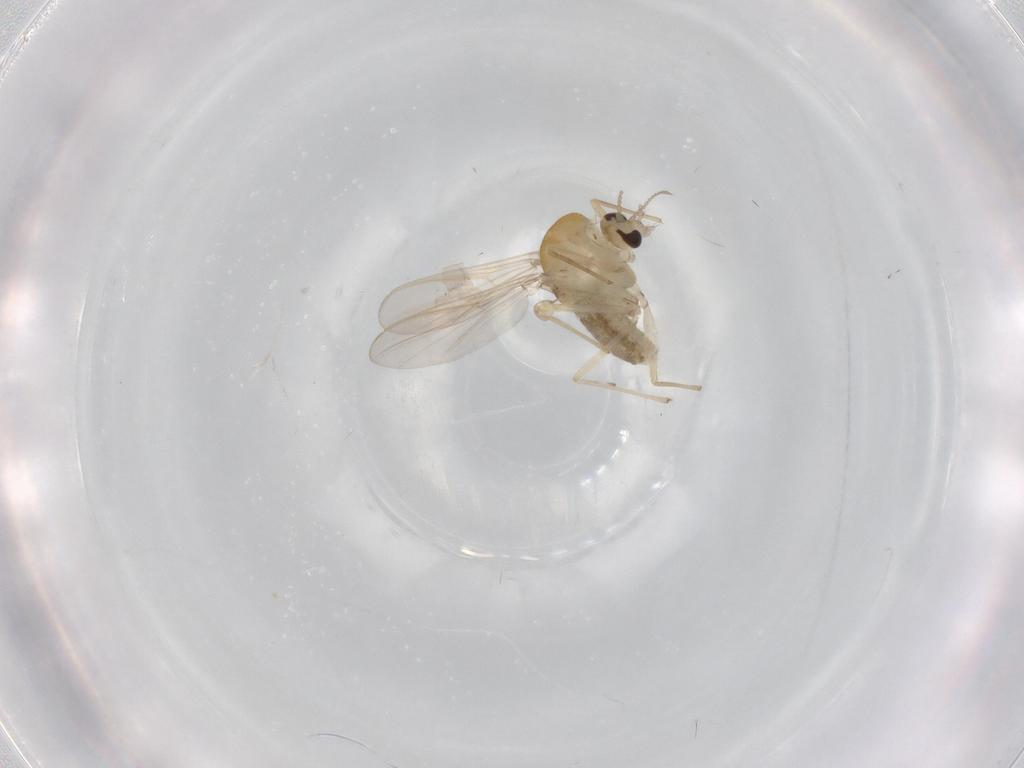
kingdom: Animalia
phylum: Arthropoda
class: Insecta
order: Diptera
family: Chironomidae
